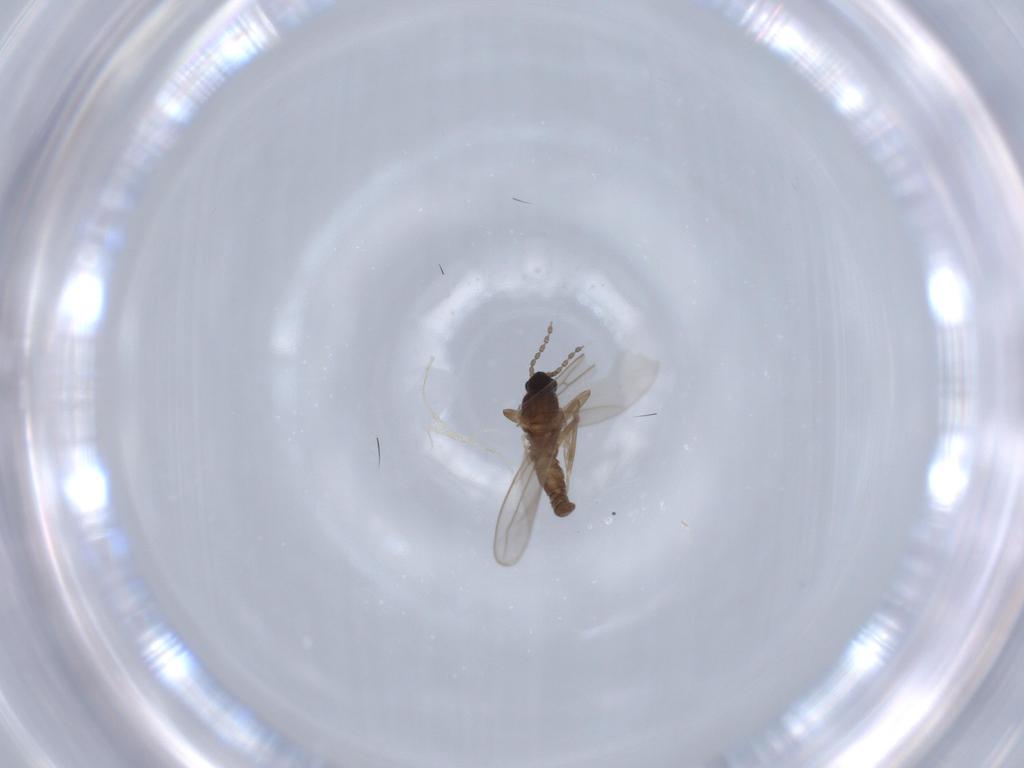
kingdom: Animalia
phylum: Arthropoda
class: Insecta
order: Diptera
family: Cecidomyiidae
